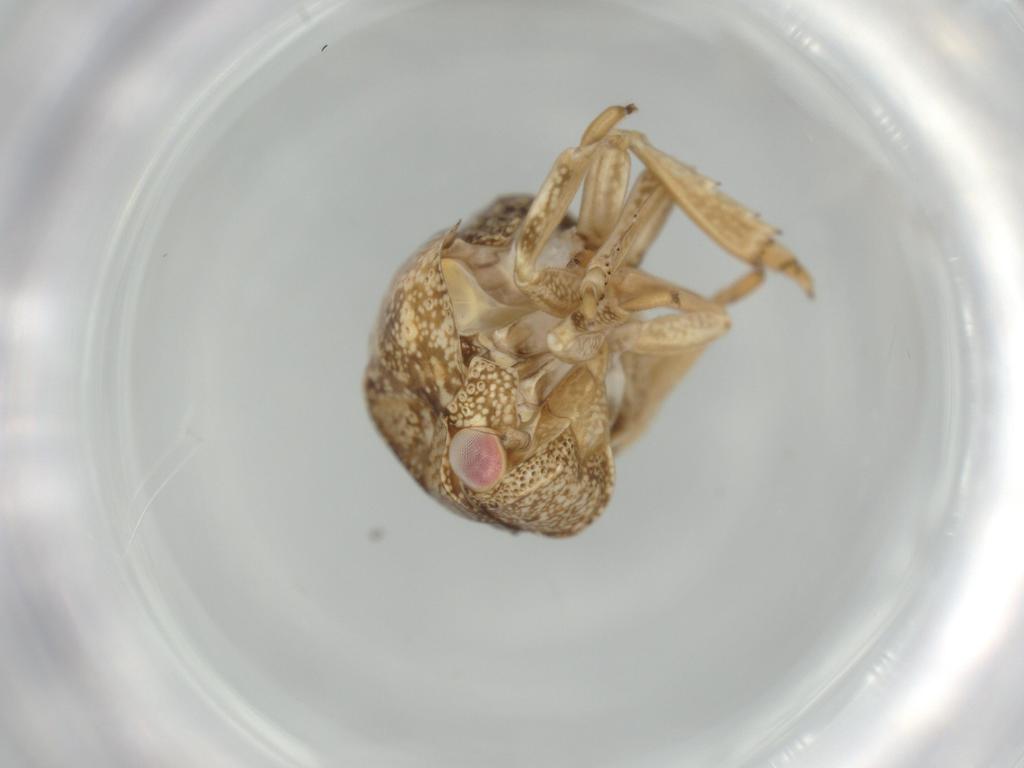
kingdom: Animalia
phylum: Arthropoda
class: Insecta
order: Hemiptera
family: Acanaloniidae
